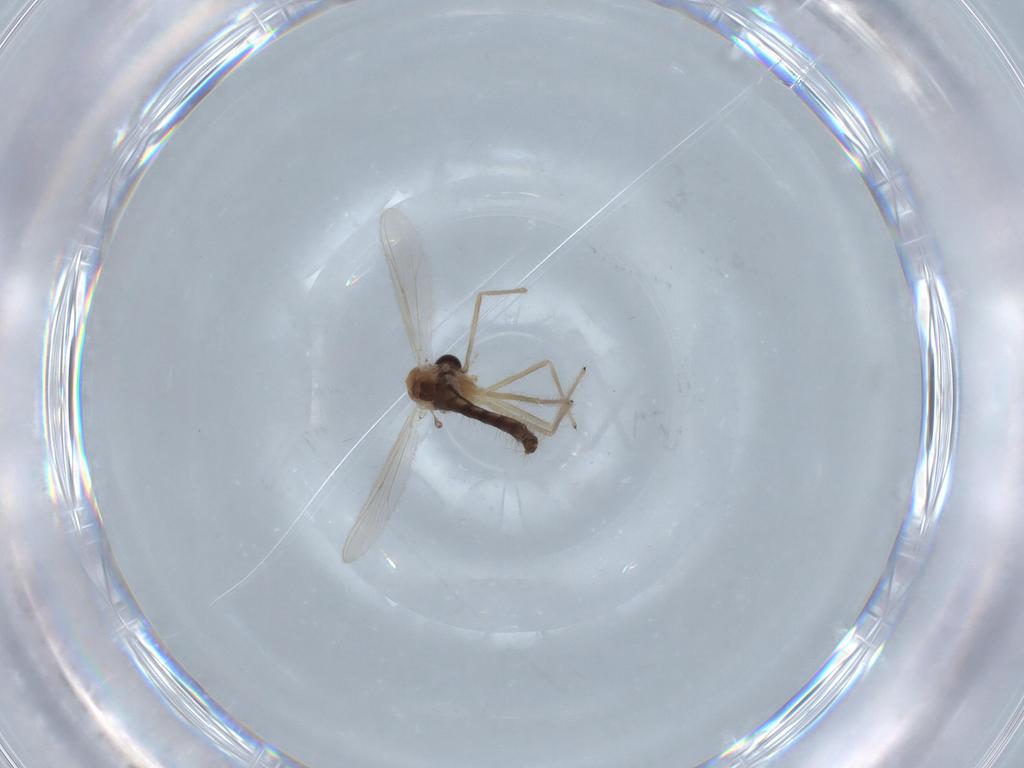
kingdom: Animalia
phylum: Arthropoda
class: Insecta
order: Diptera
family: Chironomidae
